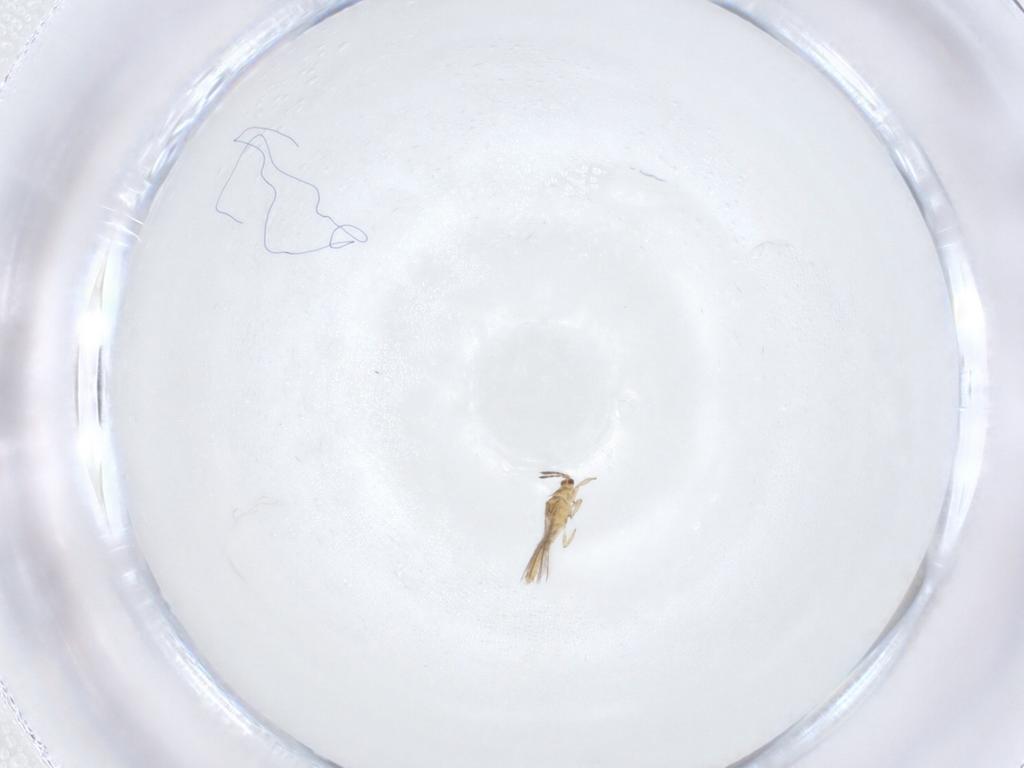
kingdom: Animalia
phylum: Arthropoda
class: Insecta
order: Thysanoptera
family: Thripidae
